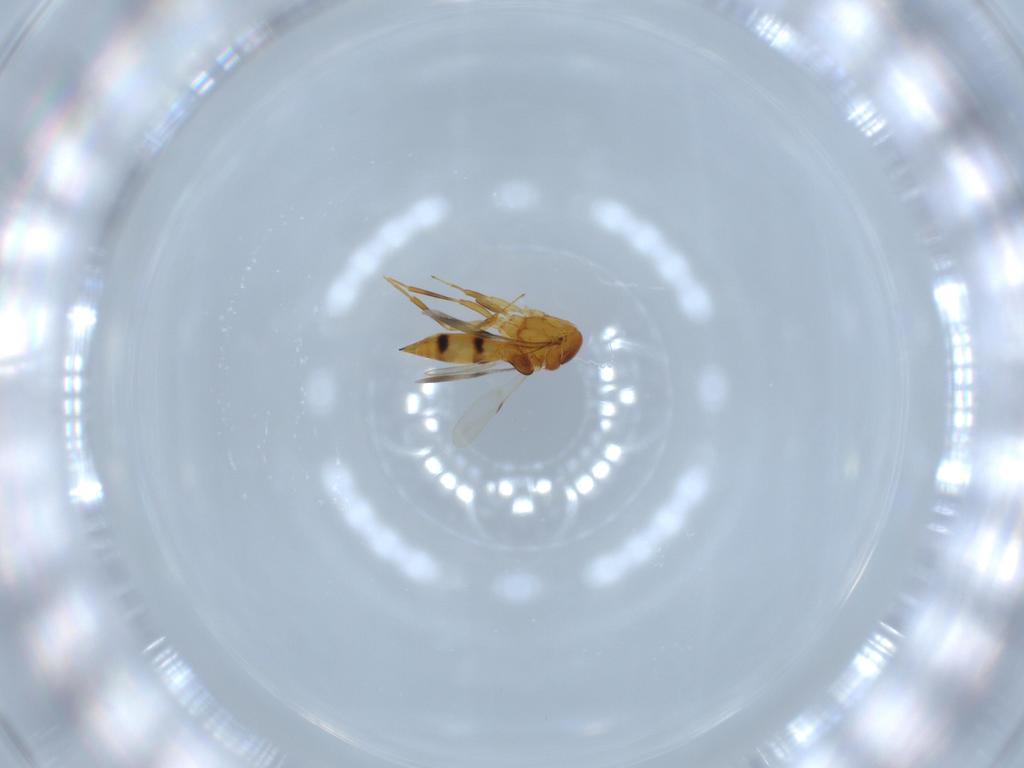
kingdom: Animalia
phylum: Arthropoda
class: Insecta
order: Hymenoptera
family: Scelionidae
